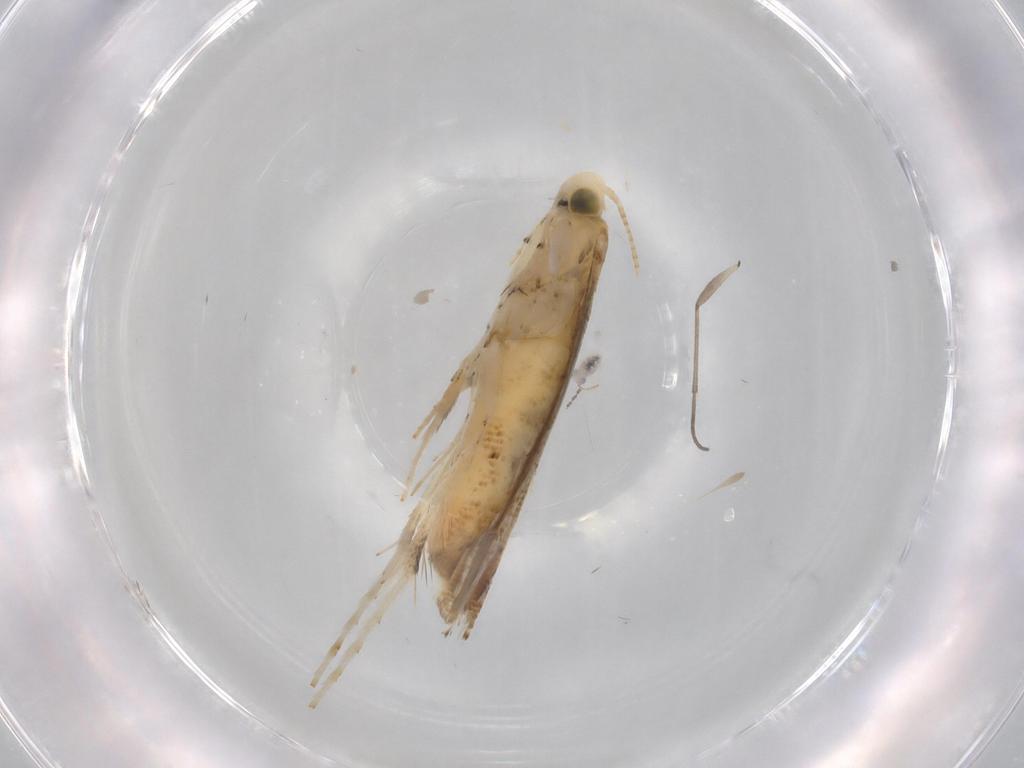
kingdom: Animalia
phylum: Arthropoda
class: Insecta
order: Lepidoptera
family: Gracillariidae
